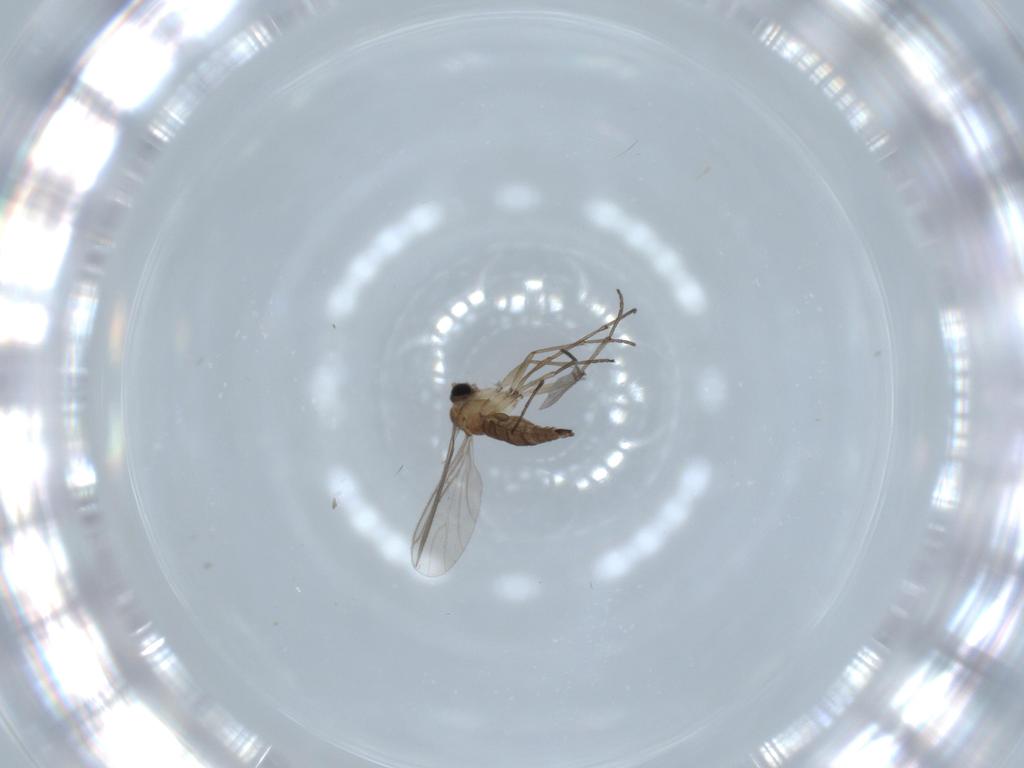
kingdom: Animalia
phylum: Arthropoda
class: Insecta
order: Diptera
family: Sciaridae
